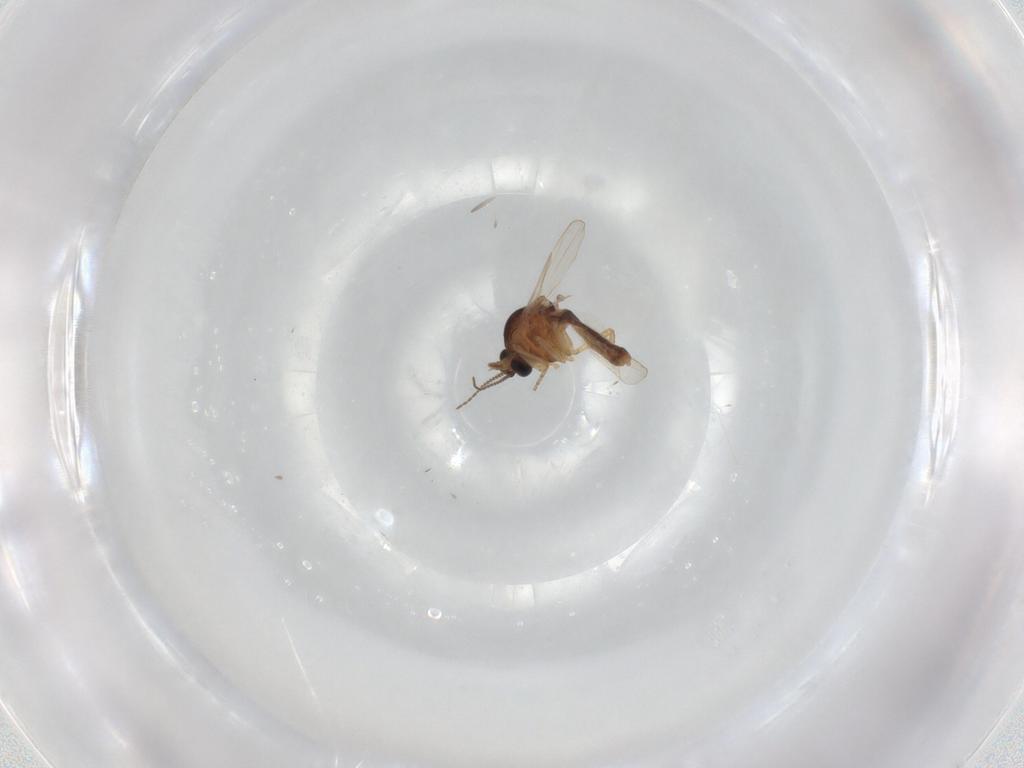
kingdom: Animalia
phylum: Arthropoda
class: Insecta
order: Diptera
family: Ceratopogonidae
